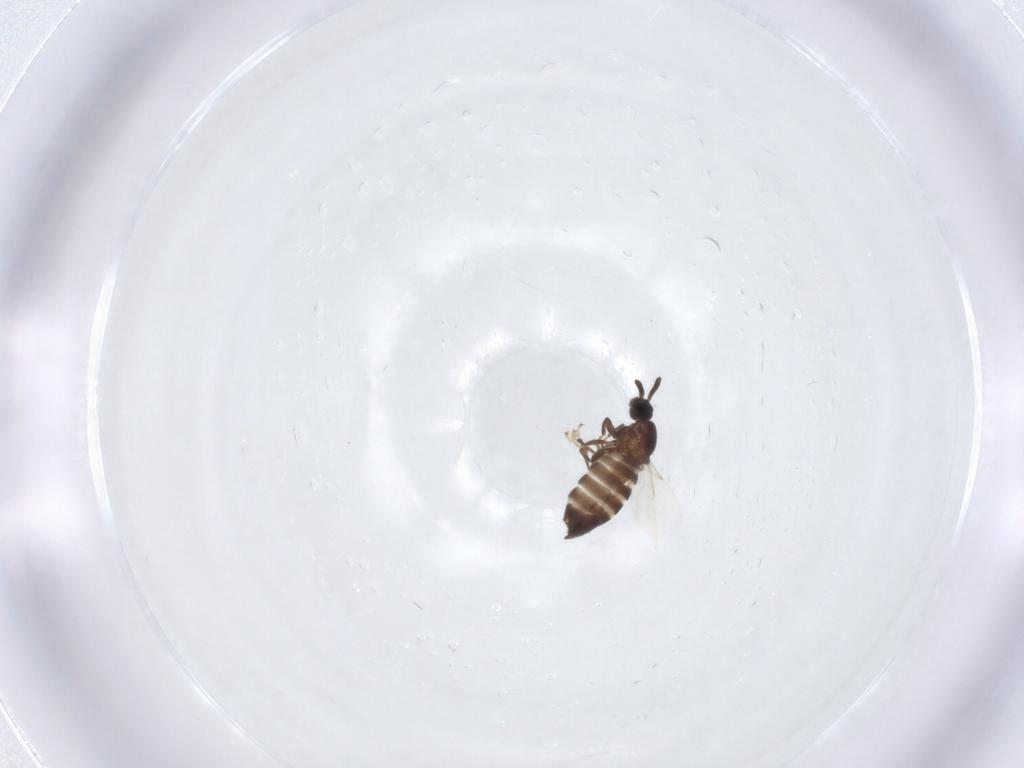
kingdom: Animalia
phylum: Arthropoda
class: Insecta
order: Diptera
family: Scatopsidae
